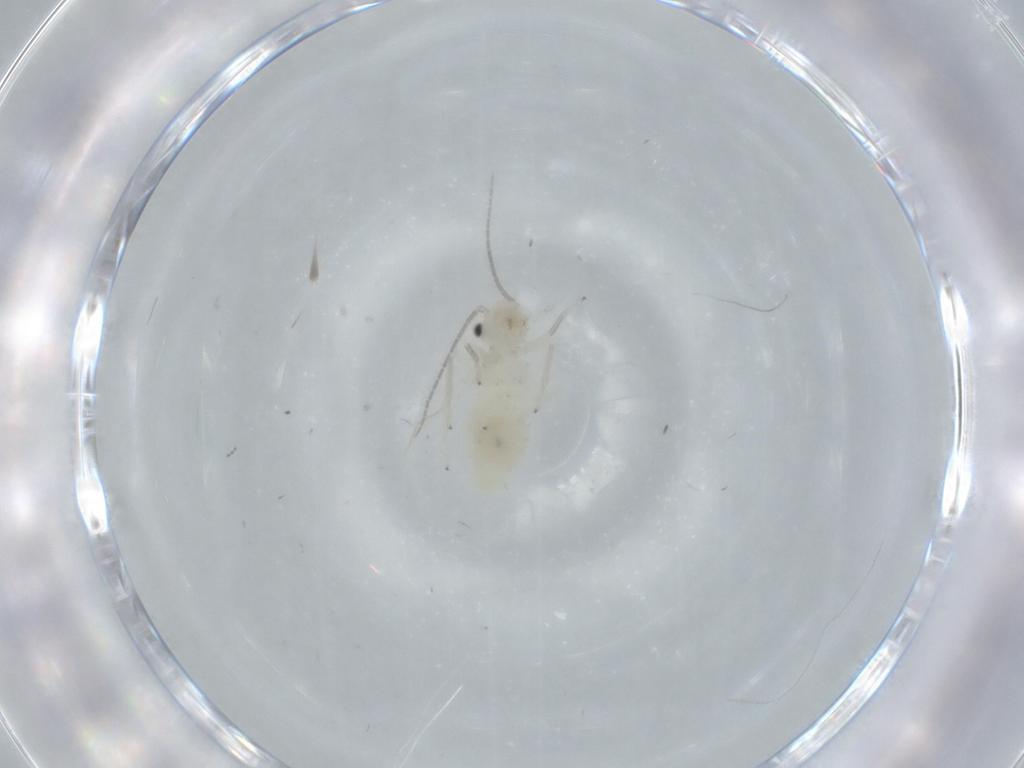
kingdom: Animalia
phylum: Arthropoda
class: Insecta
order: Psocodea
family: Caeciliusidae
